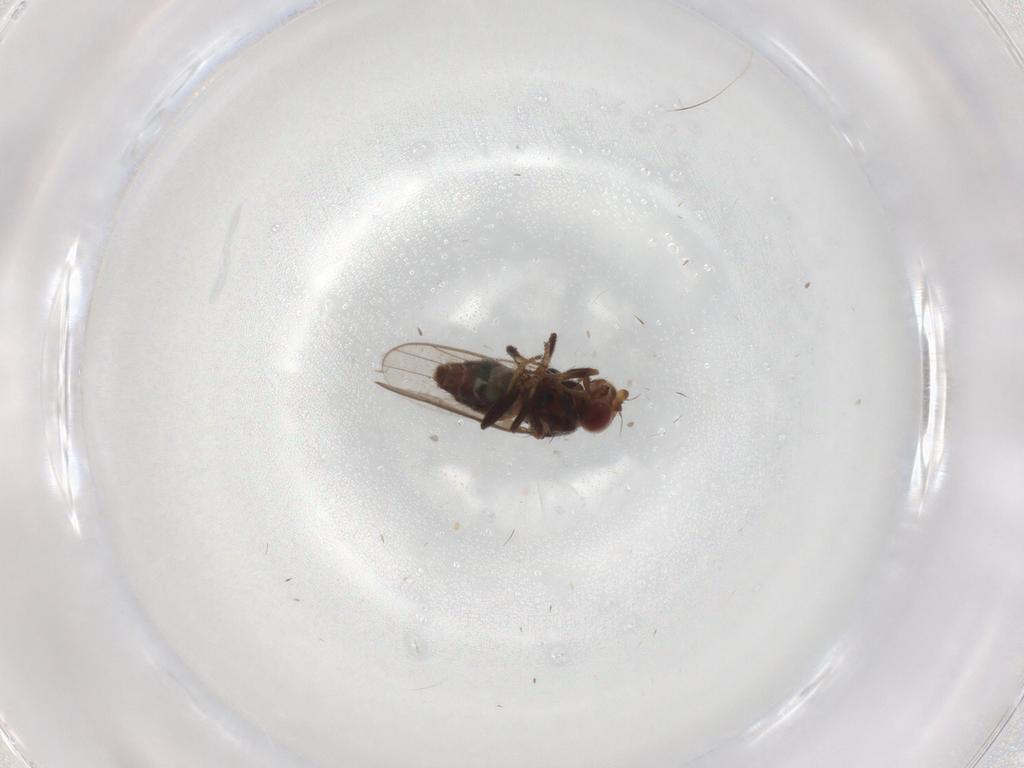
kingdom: Animalia
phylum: Arthropoda
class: Insecta
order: Diptera
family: Chloropidae
